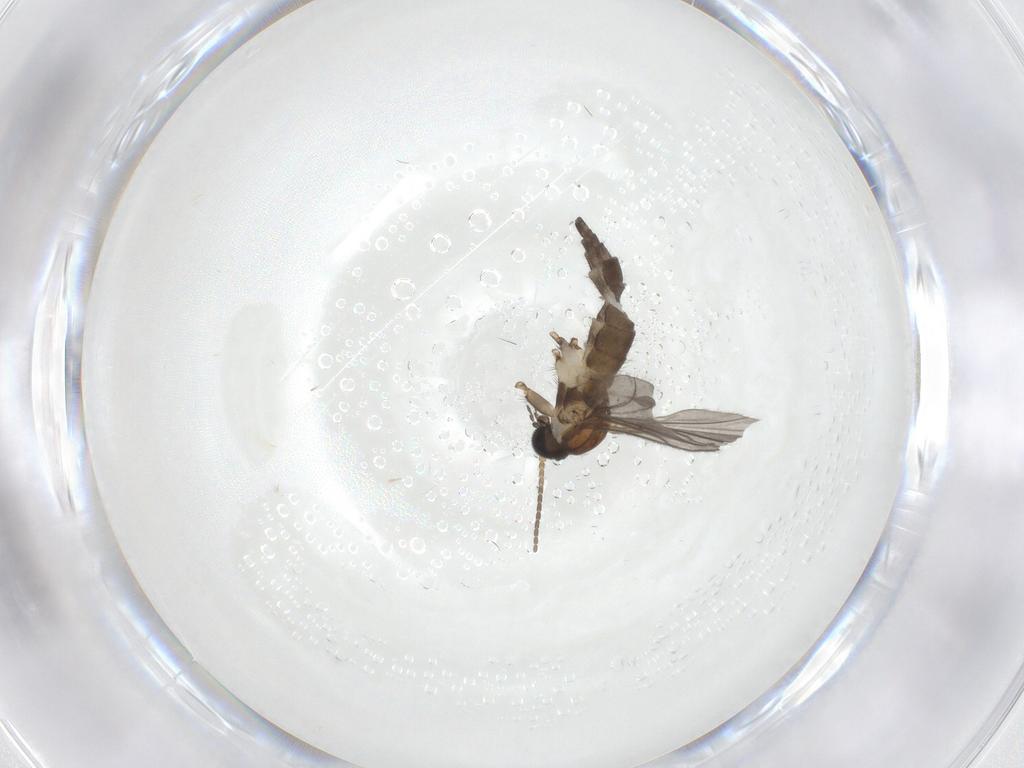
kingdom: Animalia
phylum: Arthropoda
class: Insecta
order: Diptera
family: Sciaridae
